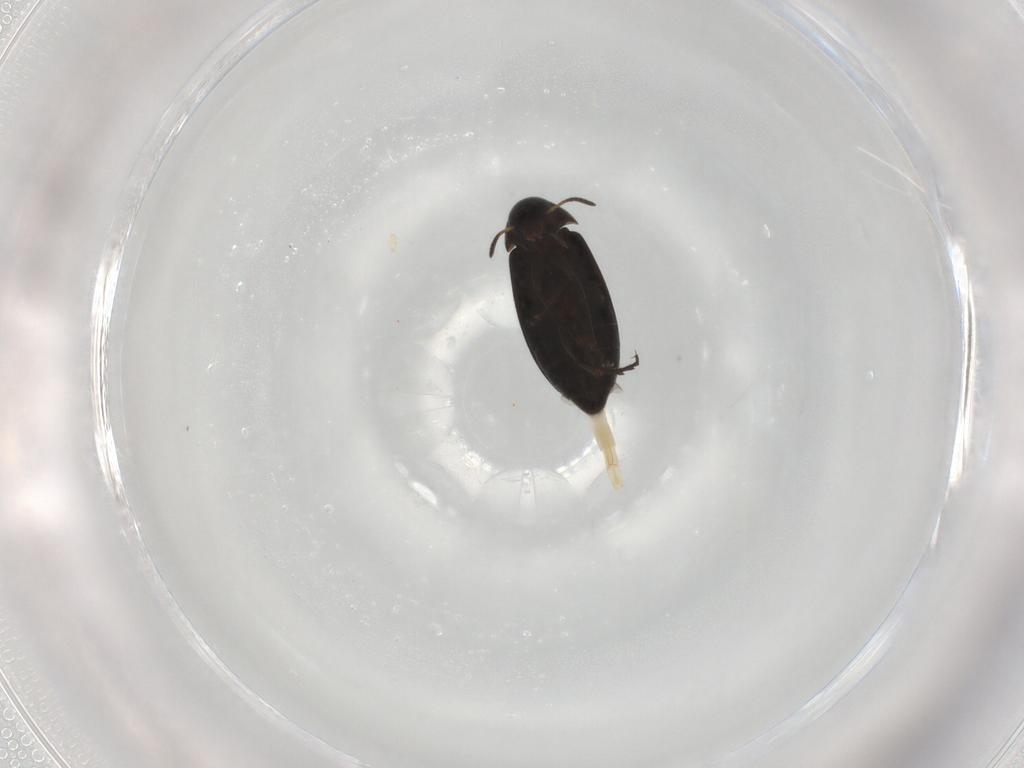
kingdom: Animalia
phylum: Arthropoda
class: Insecta
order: Coleoptera
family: Scraptiidae
